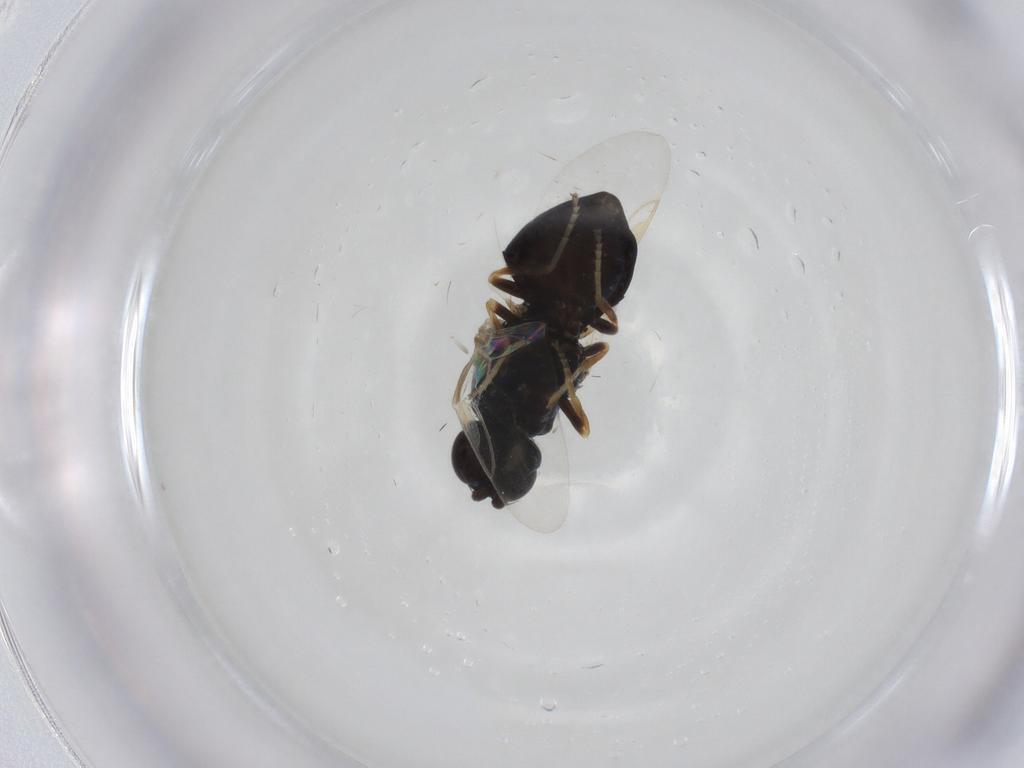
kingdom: Animalia
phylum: Arthropoda
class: Insecta
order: Diptera
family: Stratiomyidae
